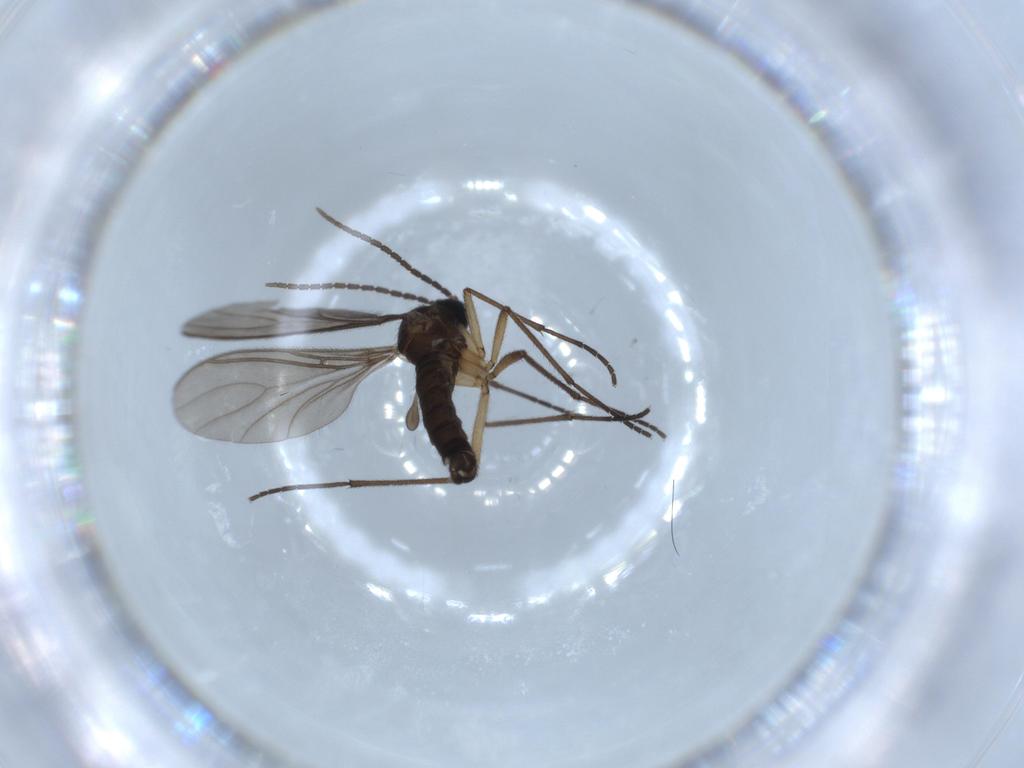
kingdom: Animalia
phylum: Arthropoda
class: Insecta
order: Diptera
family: Sciaridae
